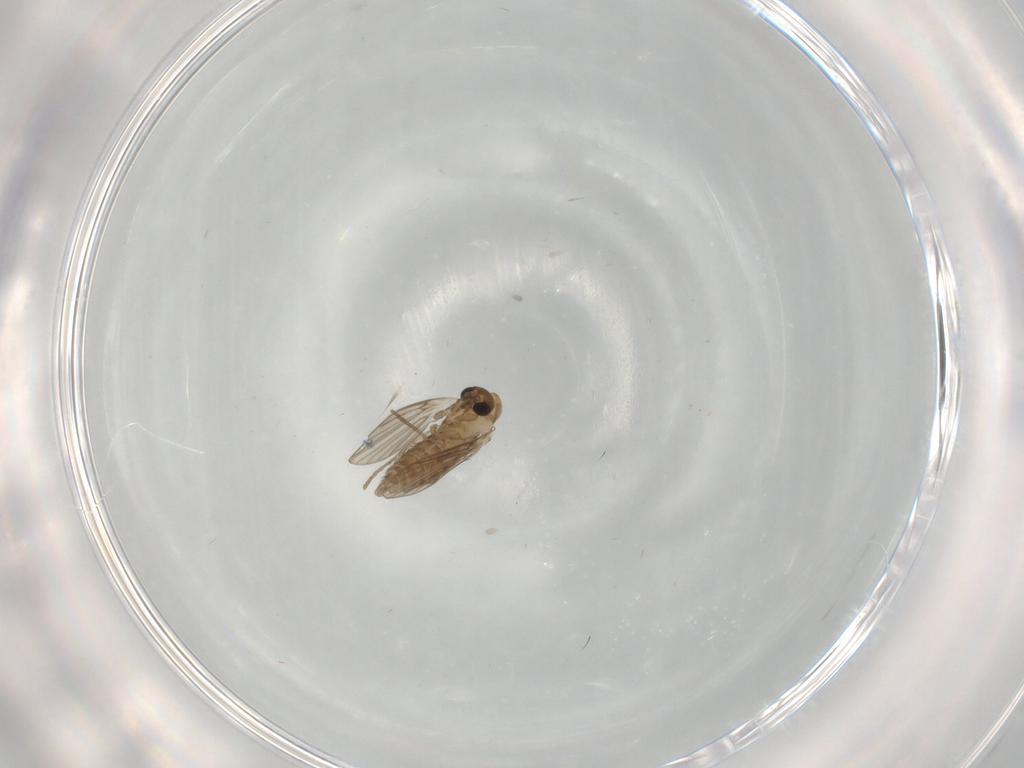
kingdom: Animalia
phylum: Arthropoda
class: Insecta
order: Diptera
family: Psychodidae
